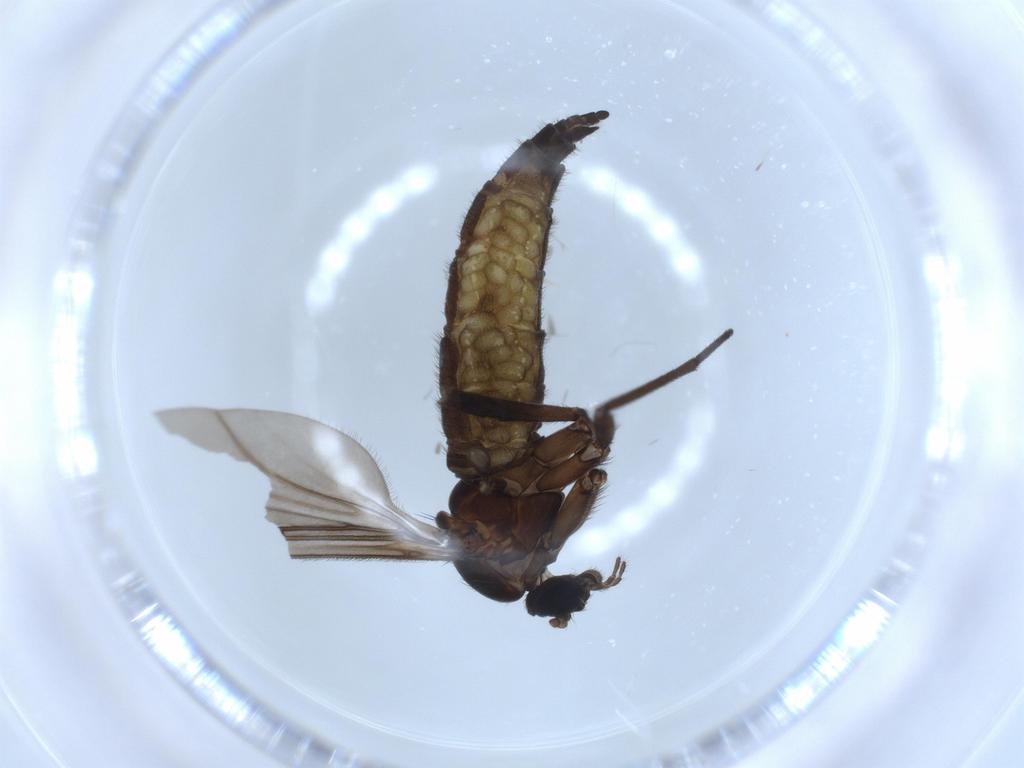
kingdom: Animalia
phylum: Arthropoda
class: Insecta
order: Diptera
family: Sciaridae
